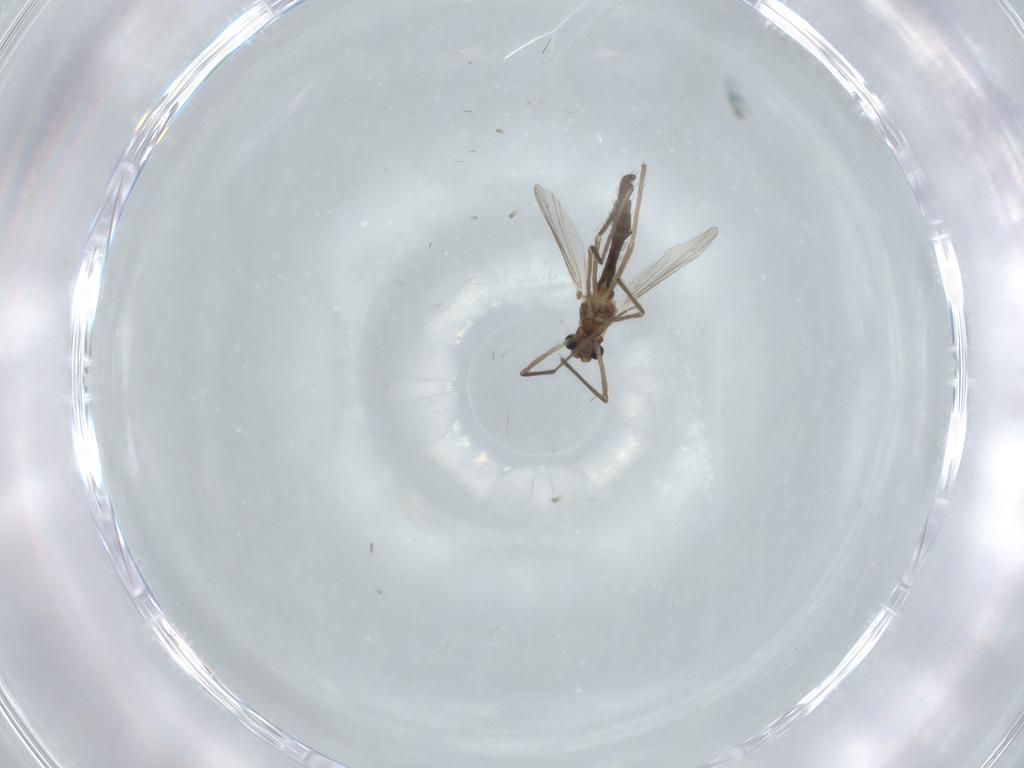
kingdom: Animalia
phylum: Arthropoda
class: Insecta
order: Diptera
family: Chironomidae
